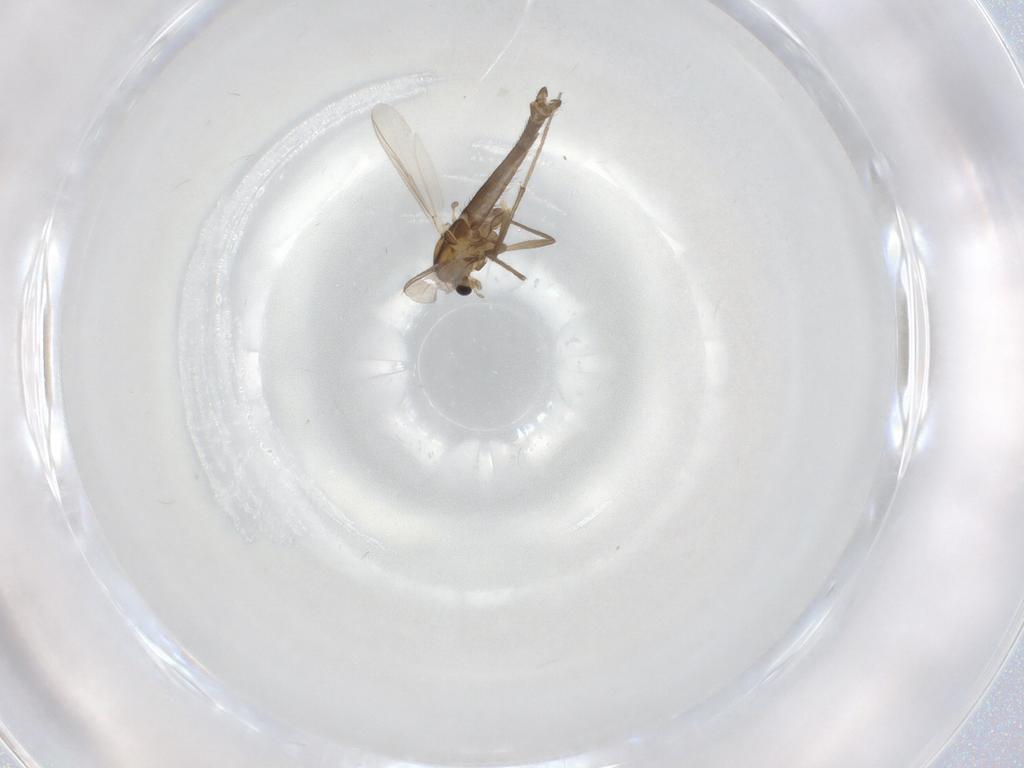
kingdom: Animalia
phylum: Arthropoda
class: Insecta
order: Diptera
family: Chironomidae
